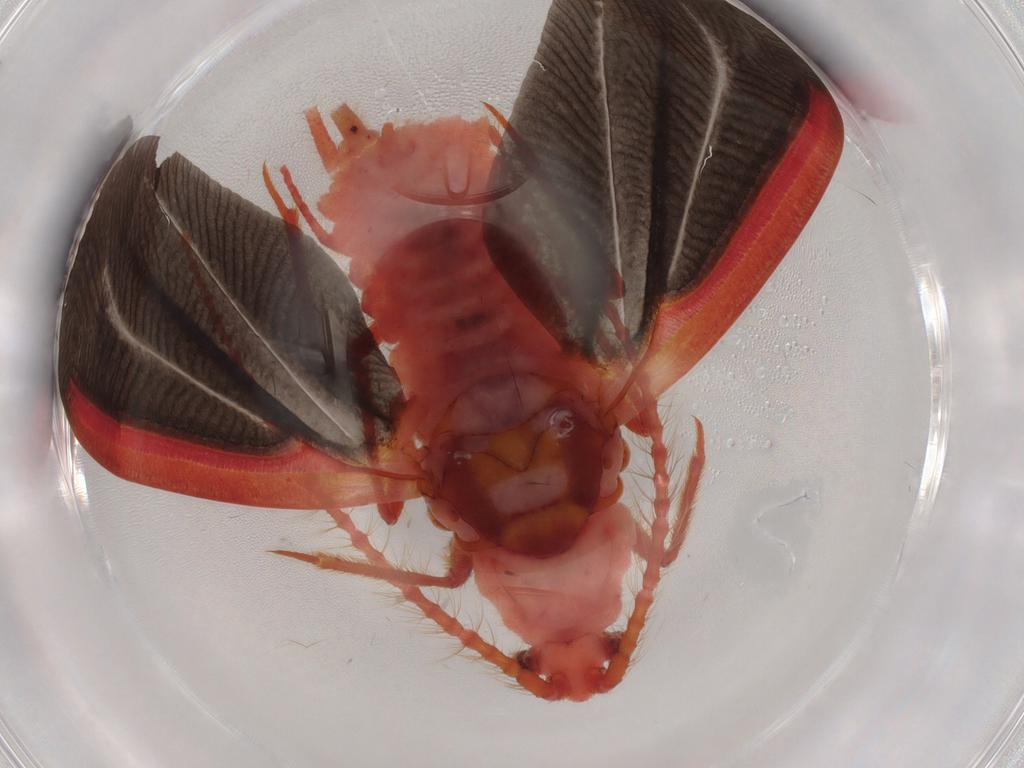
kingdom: Animalia
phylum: Arthropoda
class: Insecta
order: Hemiptera
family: Monophlebidae
